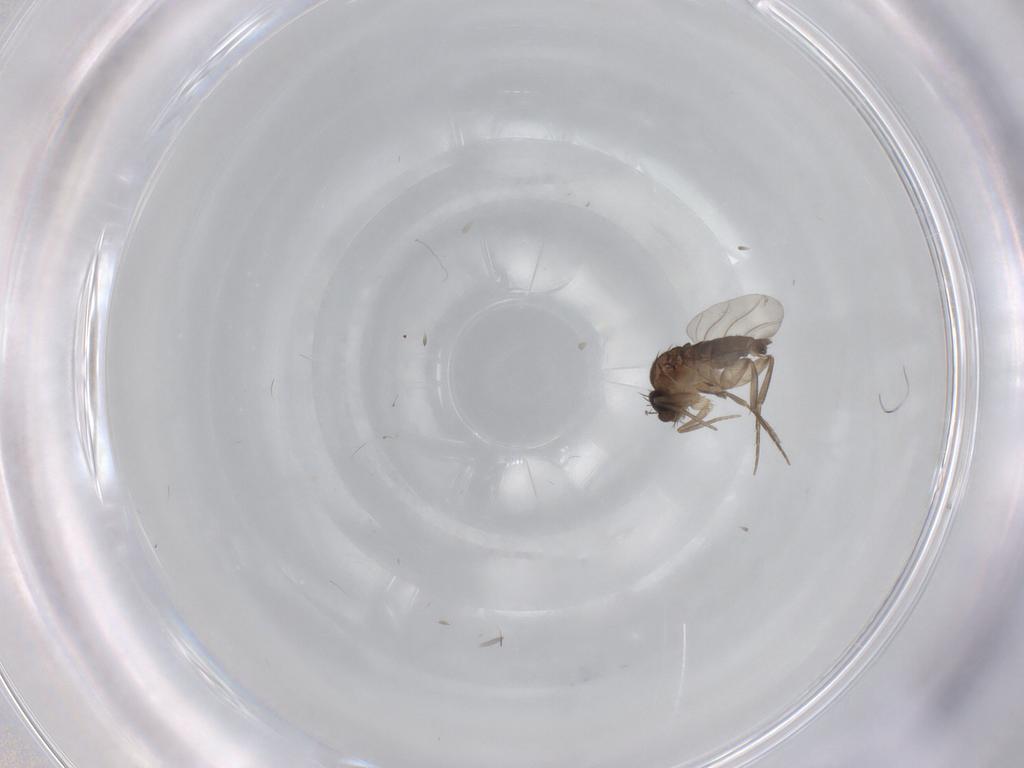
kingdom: Animalia
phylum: Arthropoda
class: Insecta
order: Diptera
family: Phoridae
